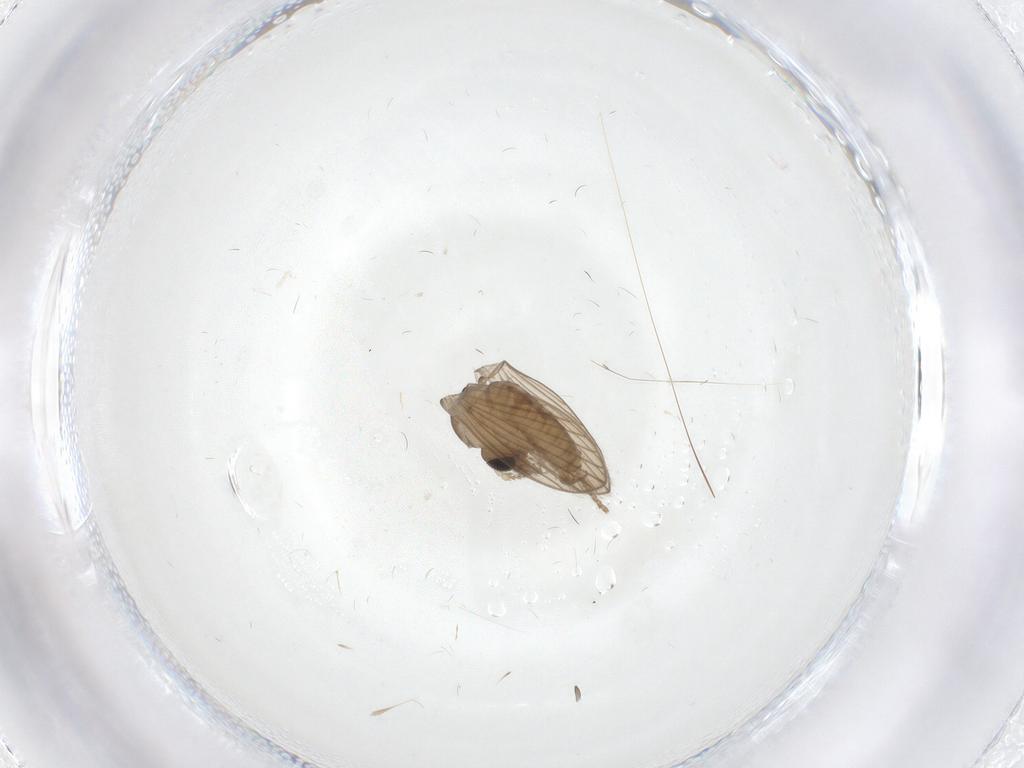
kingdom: Animalia
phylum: Arthropoda
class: Insecta
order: Diptera
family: Psychodidae
